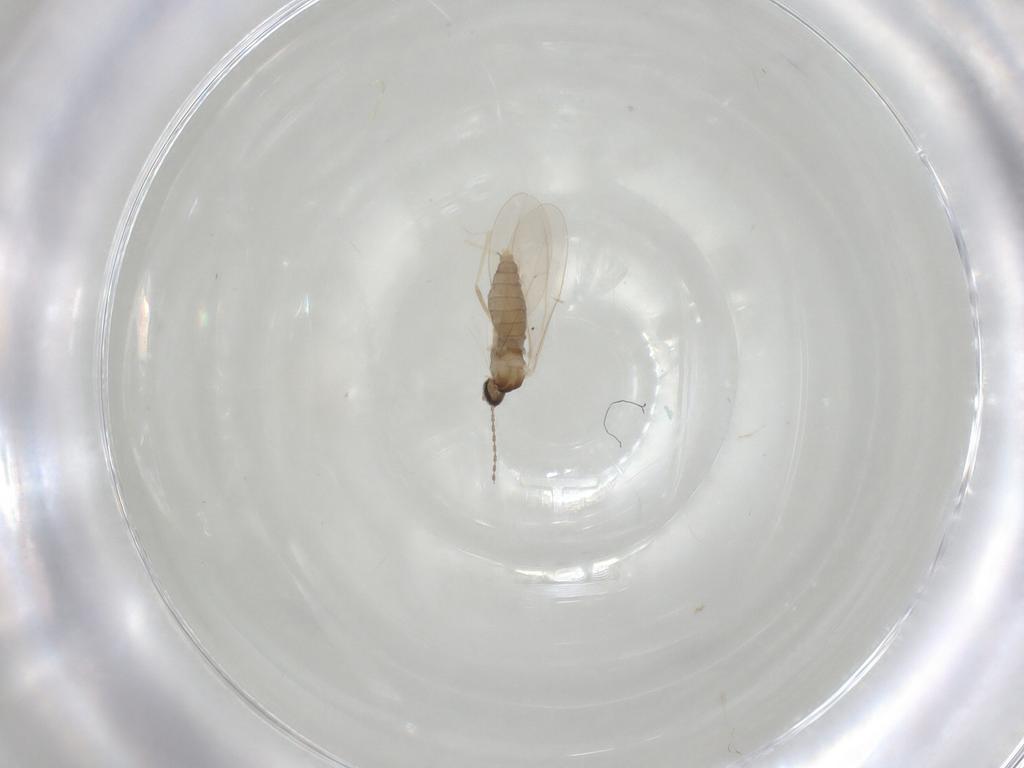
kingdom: Animalia
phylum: Arthropoda
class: Insecta
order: Diptera
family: Cecidomyiidae
